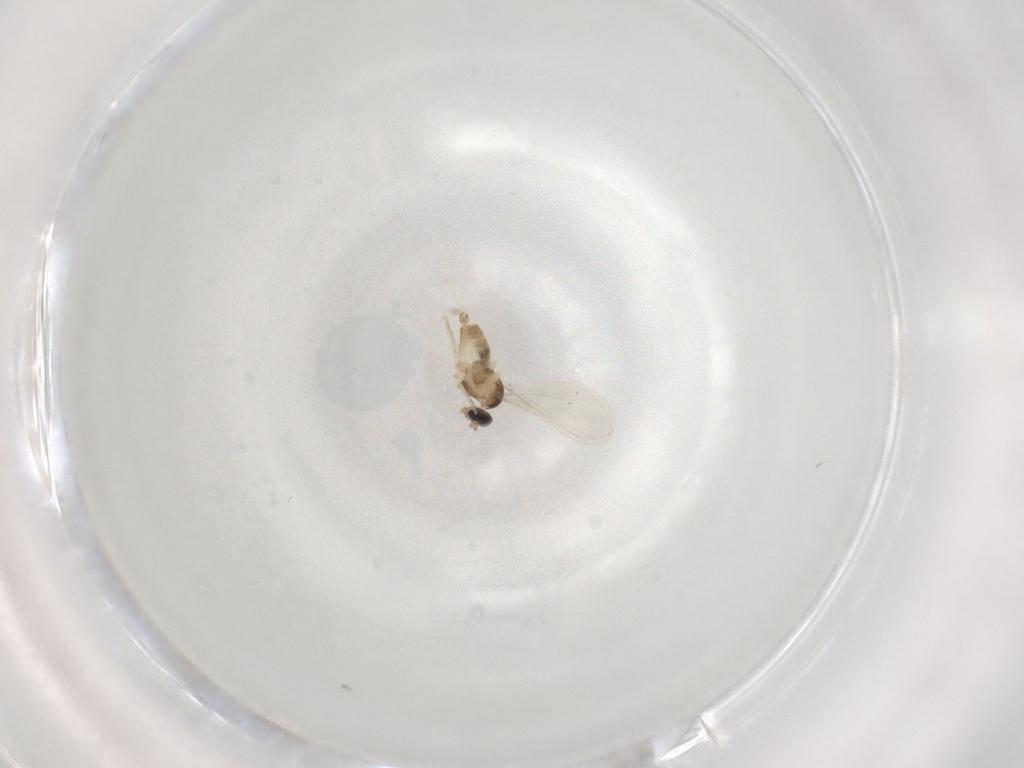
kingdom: Animalia
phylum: Arthropoda
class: Insecta
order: Diptera
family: Cecidomyiidae
